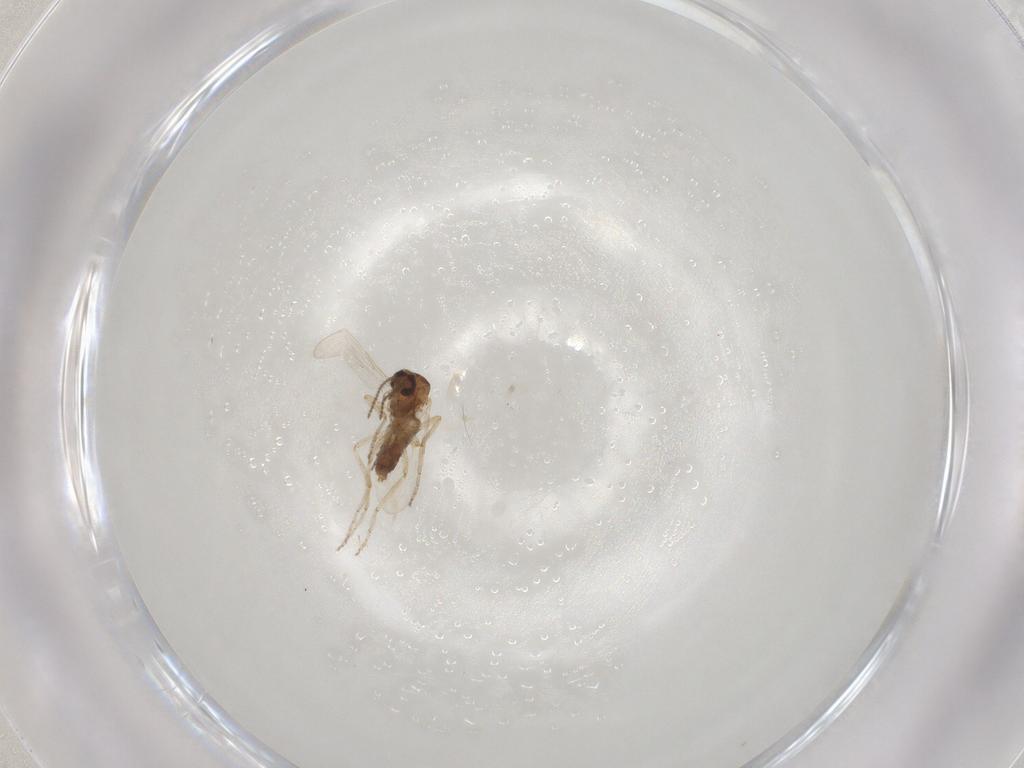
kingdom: Animalia
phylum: Arthropoda
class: Insecta
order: Diptera
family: Ceratopogonidae
